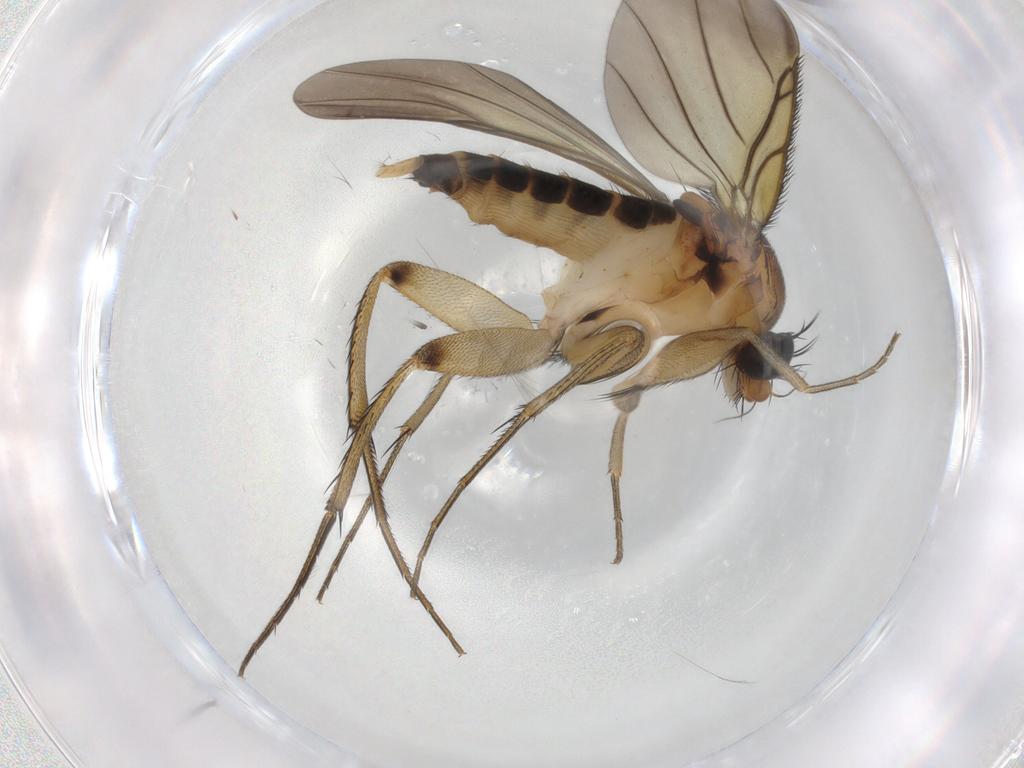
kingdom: Animalia
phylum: Arthropoda
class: Insecta
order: Diptera
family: Phoridae
